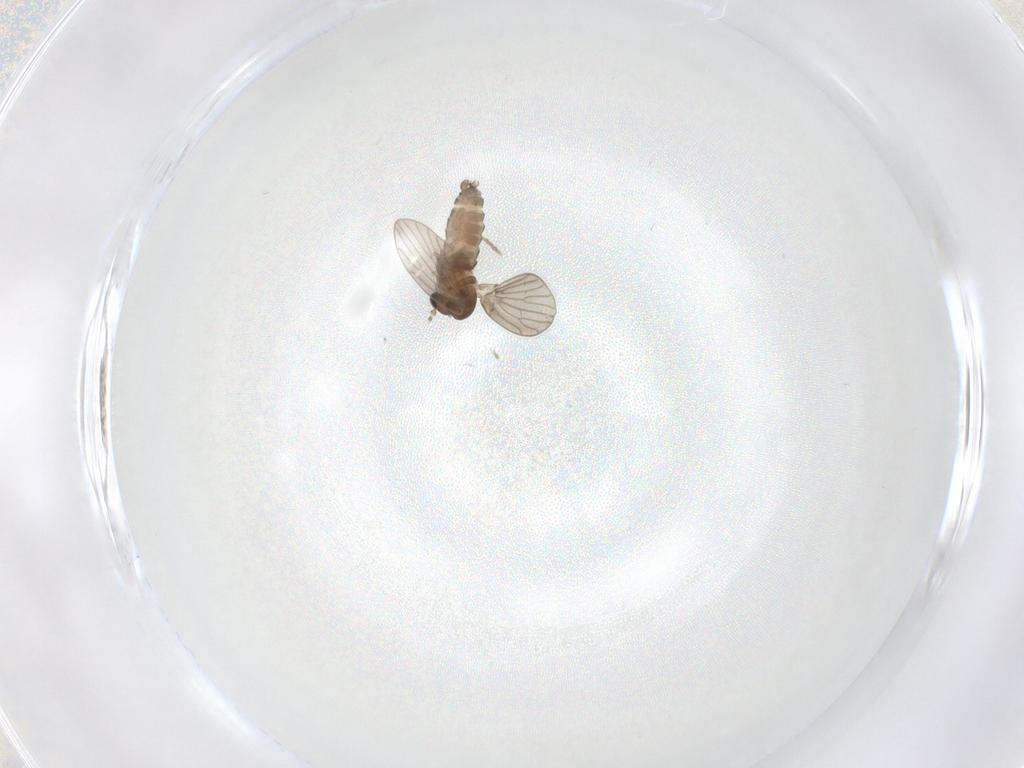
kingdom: Animalia
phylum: Arthropoda
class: Insecta
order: Diptera
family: Psychodidae
